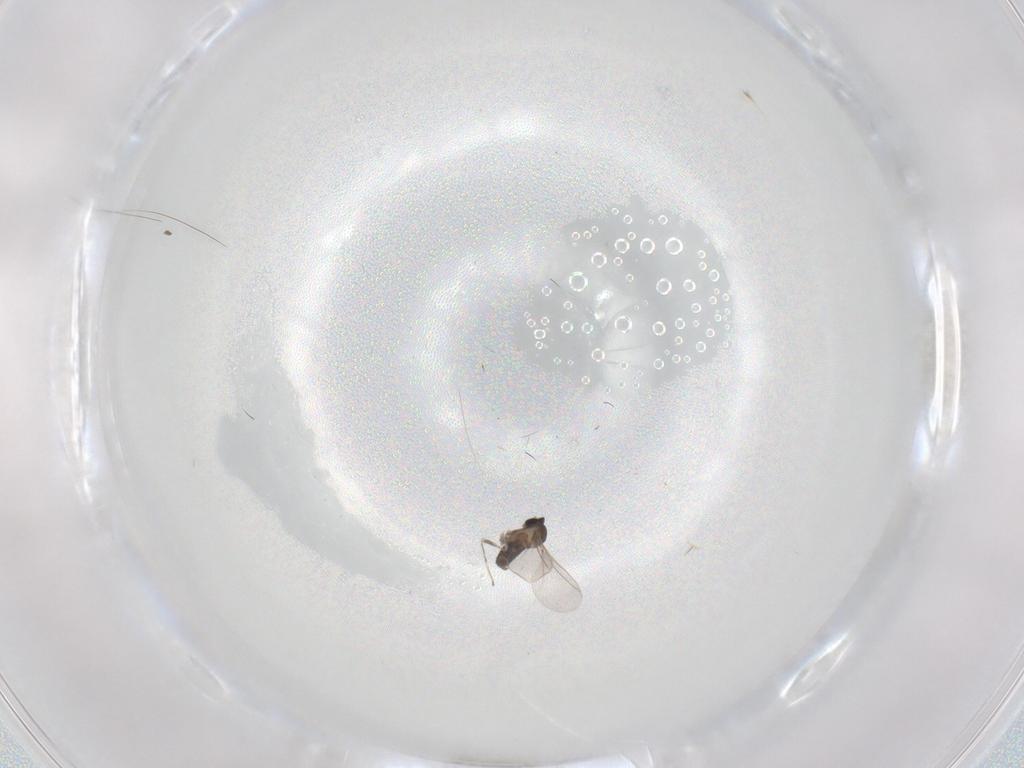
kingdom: Animalia
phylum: Arthropoda
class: Insecta
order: Diptera
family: Cecidomyiidae
